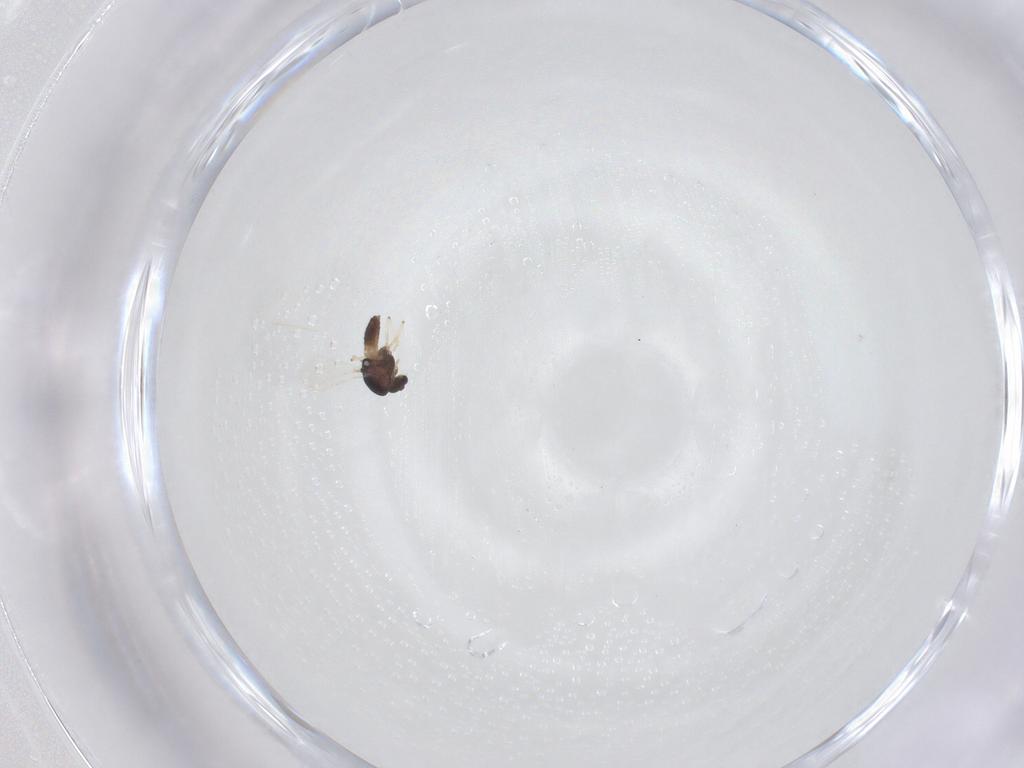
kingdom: Animalia
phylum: Arthropoda
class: Insecta
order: Diptera
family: Chironomidae
